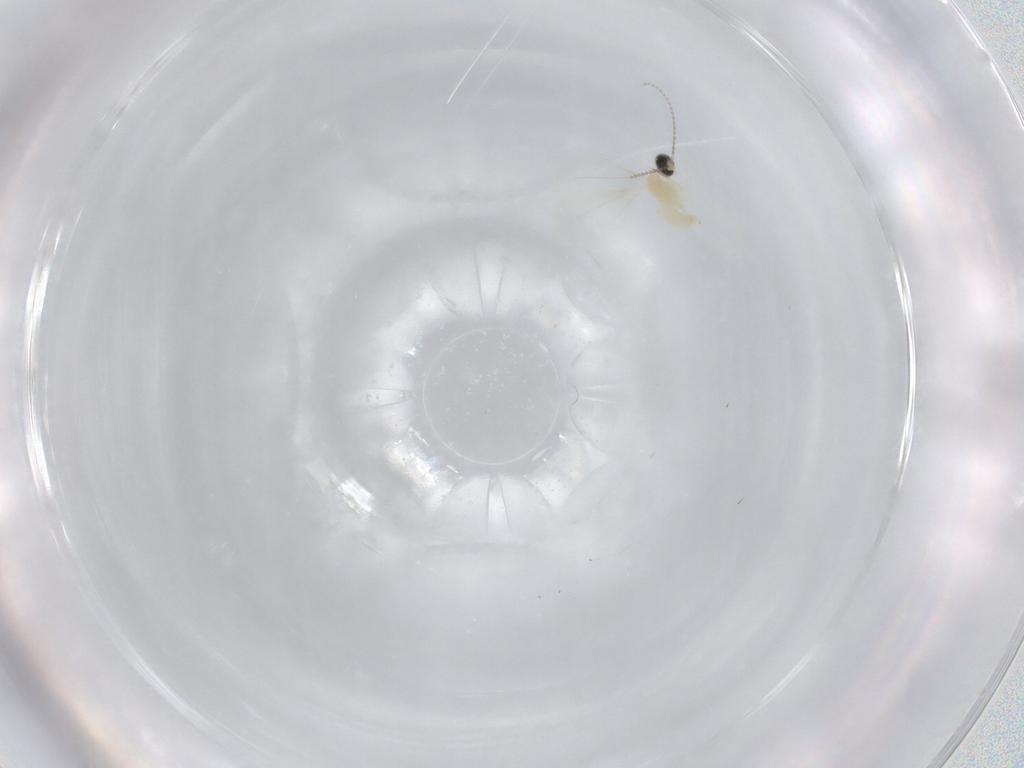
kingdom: Animalia
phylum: Arthropoda
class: Insecta
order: Diptera
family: Cecidomyiidae
